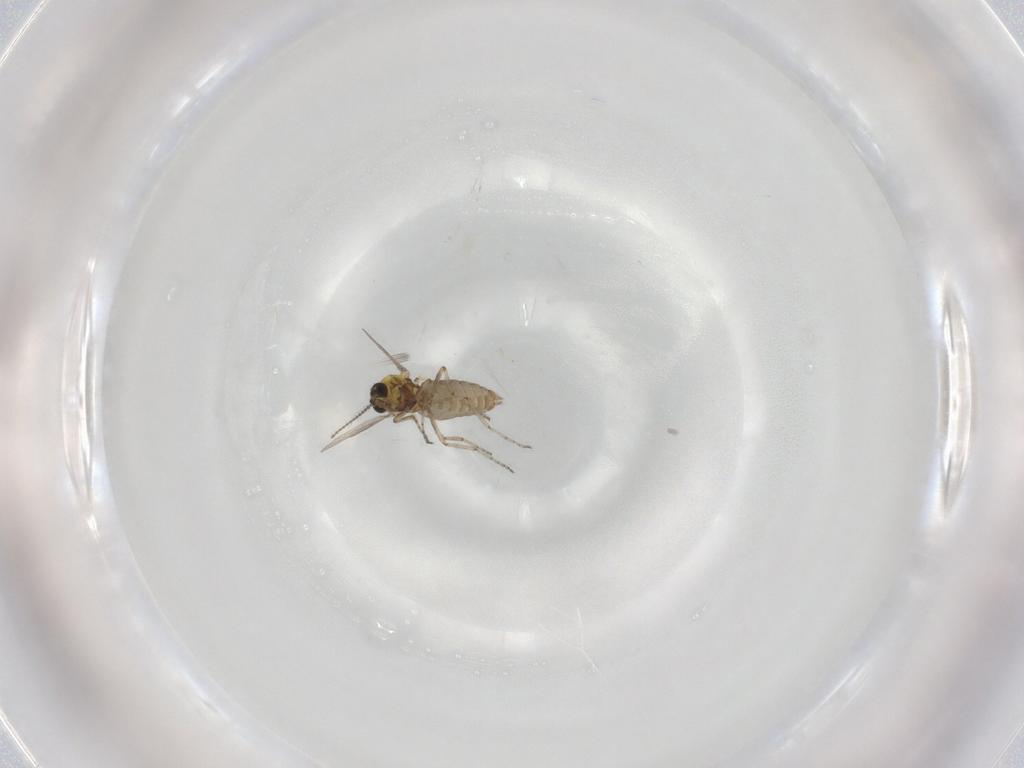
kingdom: Animalia
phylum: Arthropoda
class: Insecta
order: Diptera
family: Ceratopogonidae
